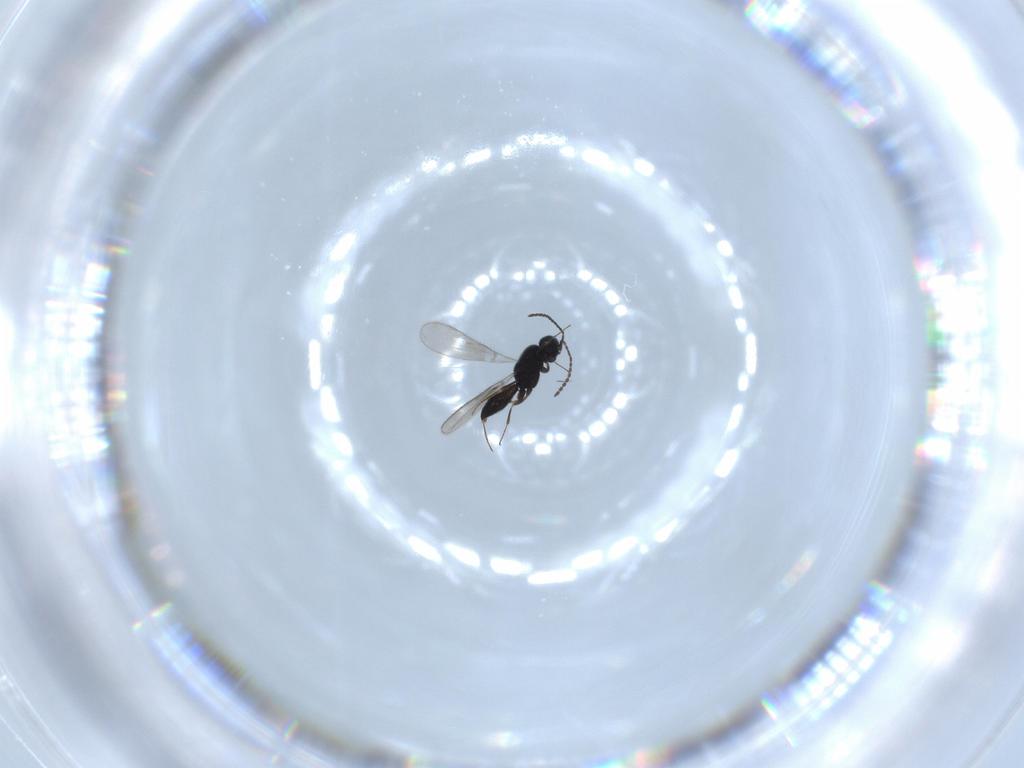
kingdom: Animalia
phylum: Arthropoda
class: Insecta
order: Hymenoptera
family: Scelionidae
